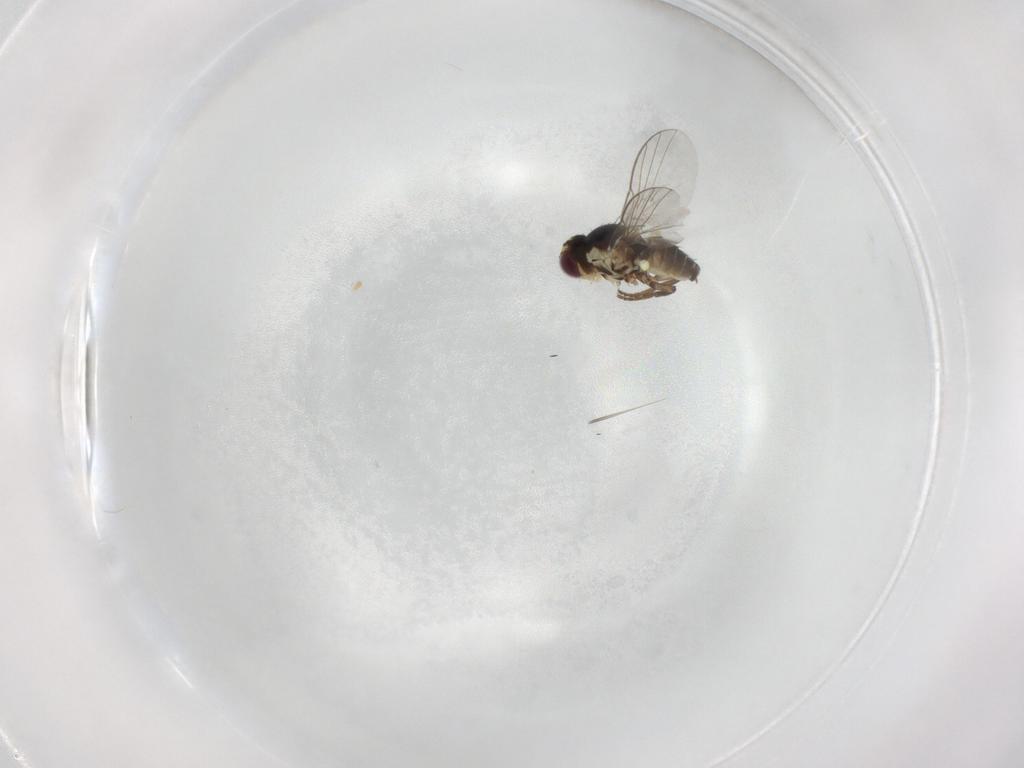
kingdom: Animalia
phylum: Arthropoda
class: Insecta
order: Diptera
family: Agromyzidae
